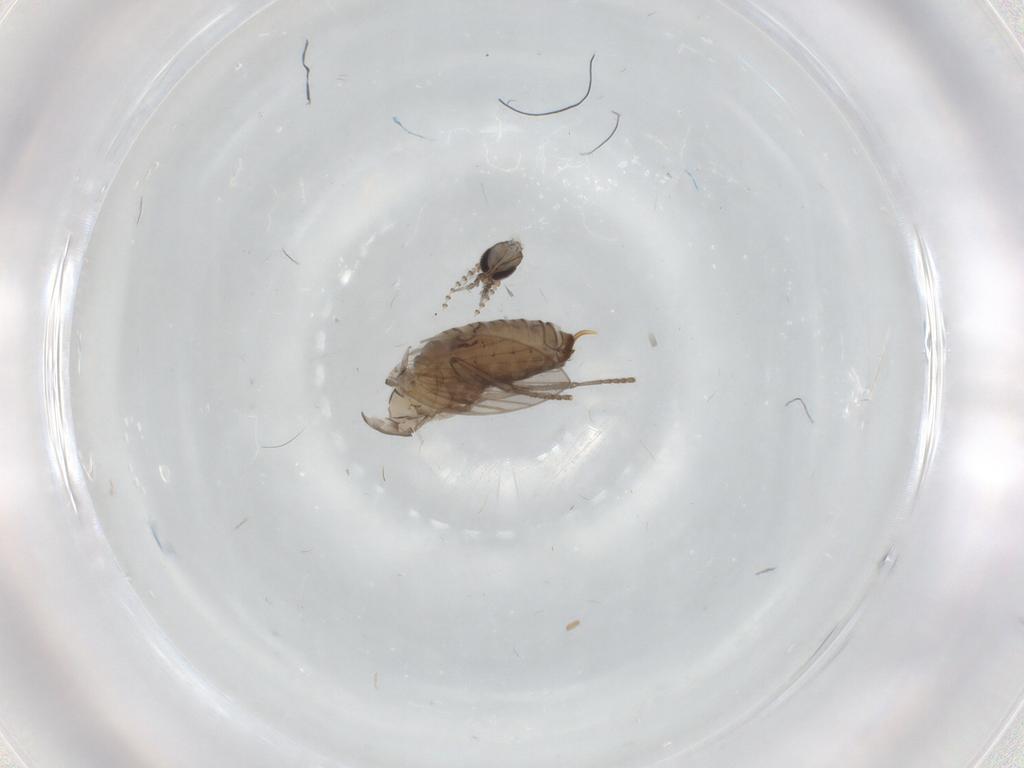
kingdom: Animalia
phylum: Arthropoda
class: Insecta
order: Diptera
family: Psychodidae
